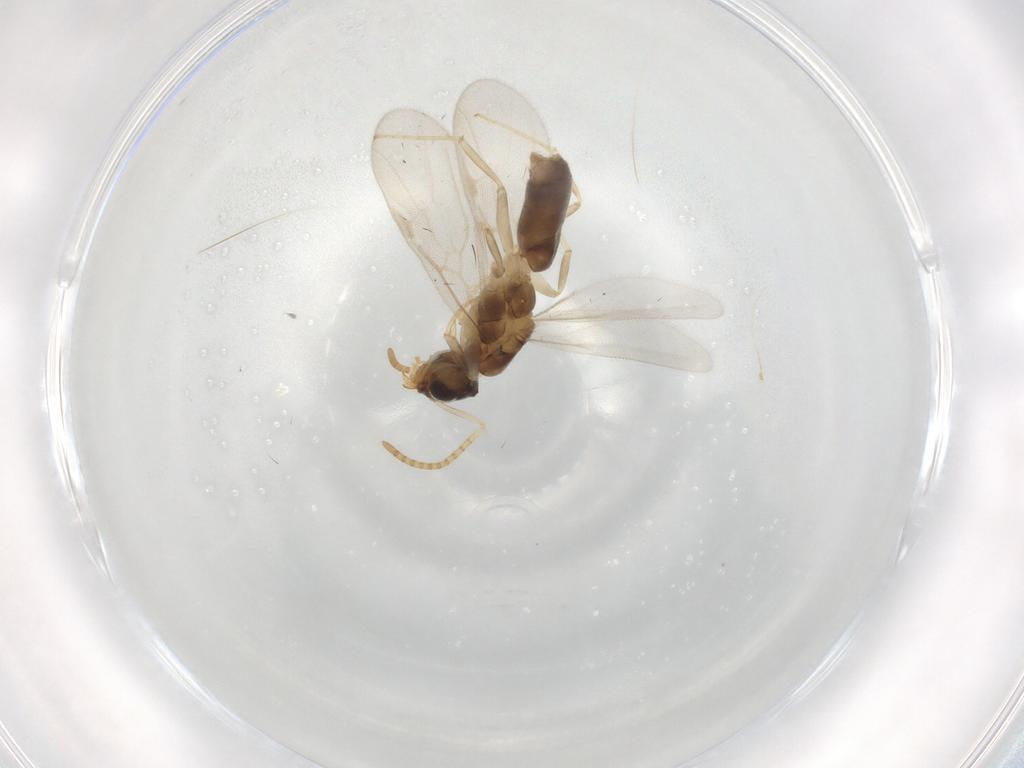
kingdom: Animalia
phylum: Arthropoda
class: Insecta
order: Hymenoptera
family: Formicidae
